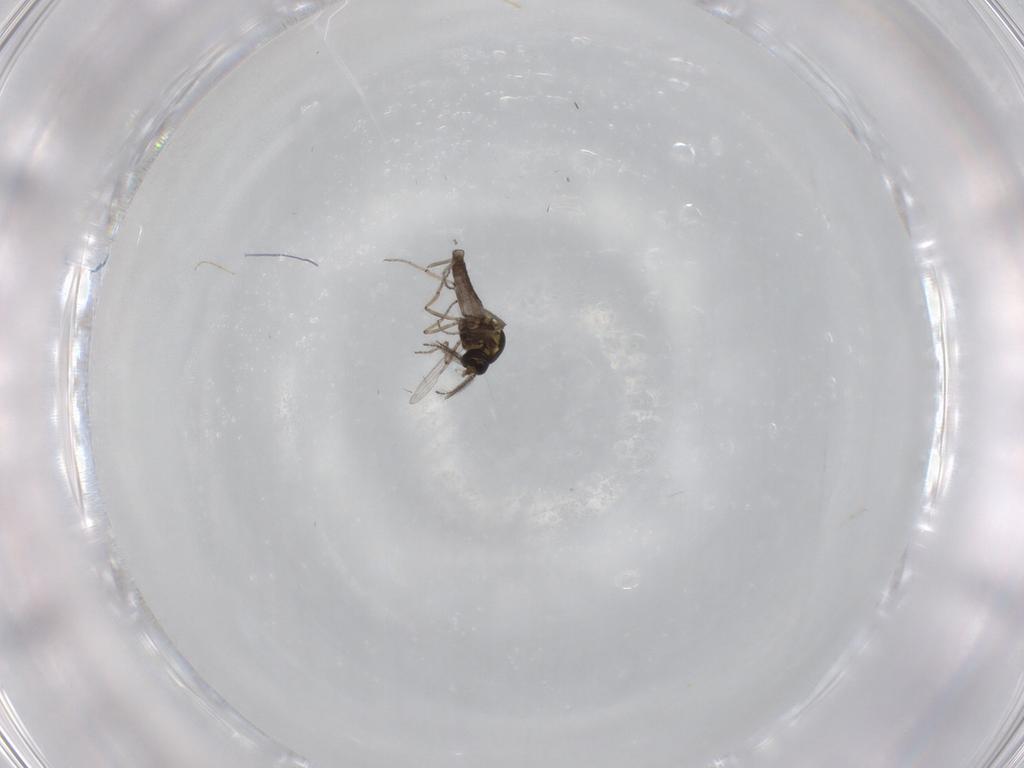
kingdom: Animalia
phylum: Arthropoda
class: Insecta
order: Diptera
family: Ceratopogonidae
